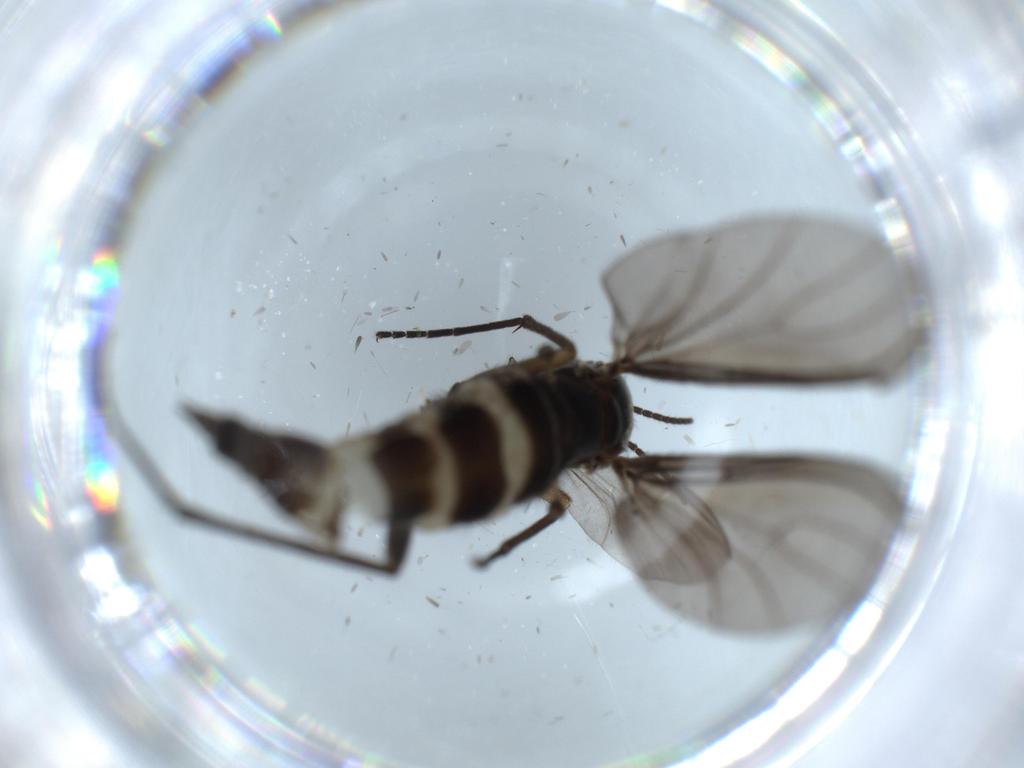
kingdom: Animalia
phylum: Arthropoda
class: Insecta
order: Diptera
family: Sciaridae
